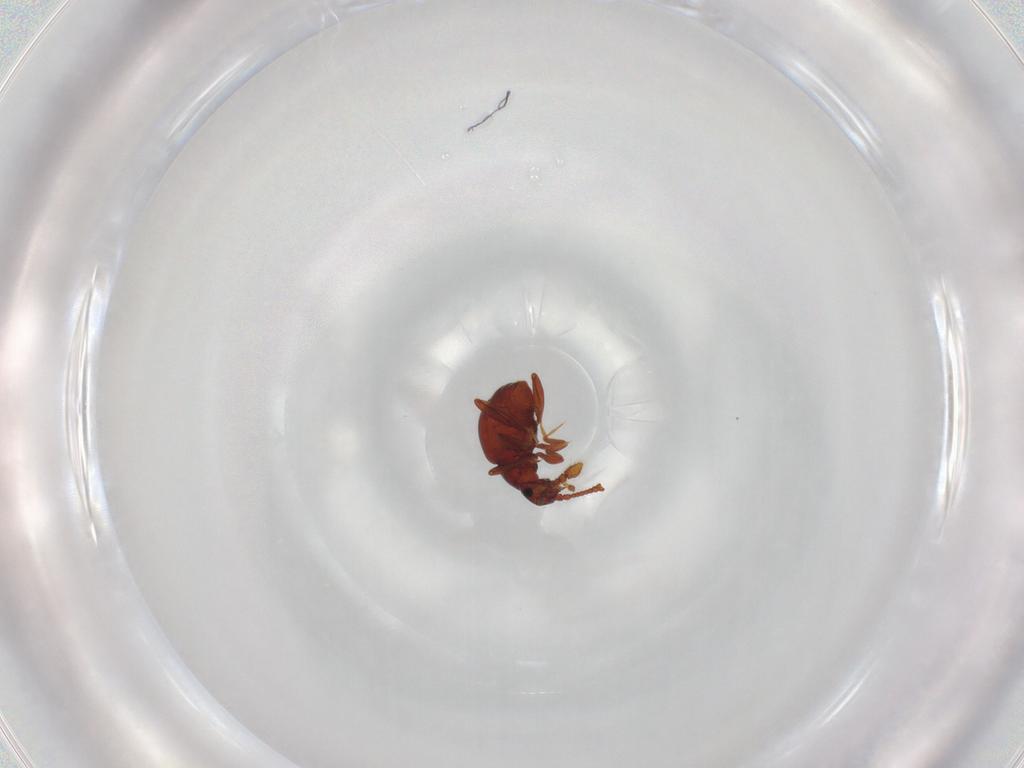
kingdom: Animalia
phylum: Arthropoda
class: Insecta
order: Coleoptera
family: Staphylinidae
